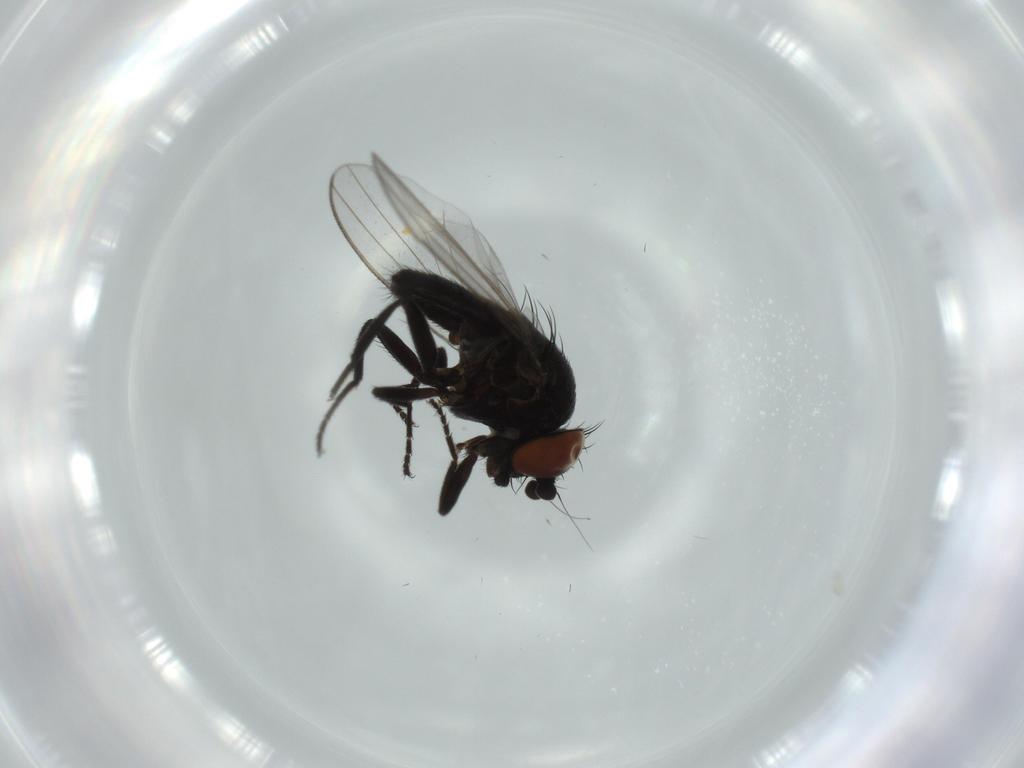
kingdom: Animalia
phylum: Arthropoda
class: Insecta
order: Diptera
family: Milichiidae
